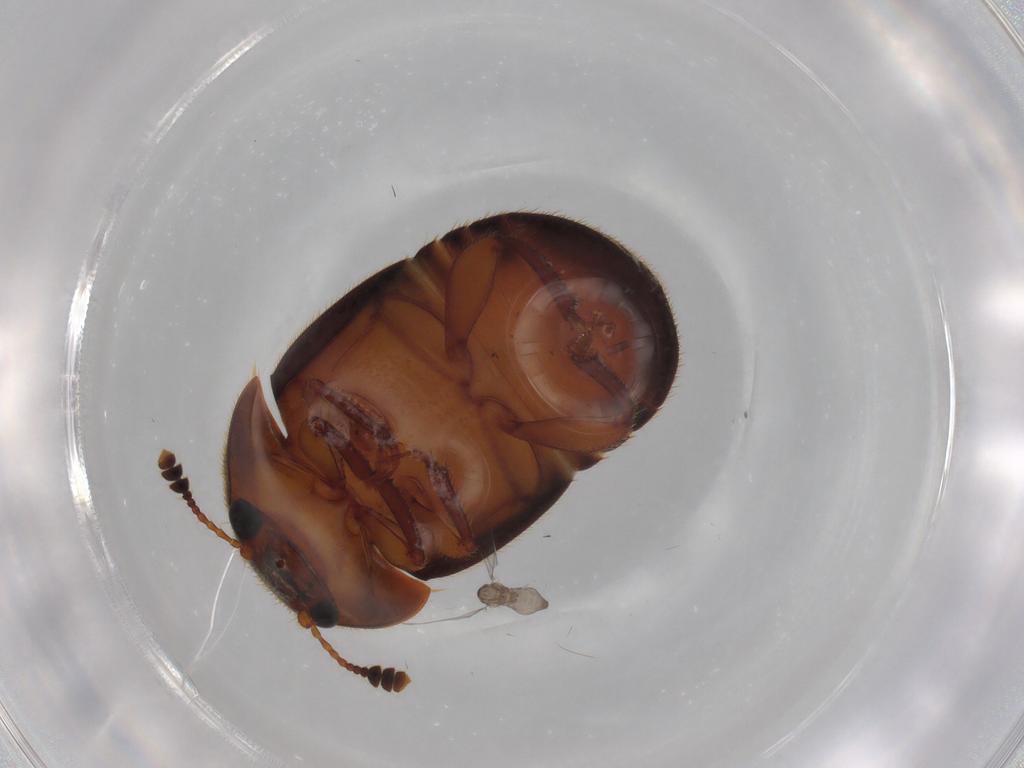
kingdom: Animalia
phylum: Arthropoda
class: Insecta
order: Coleoptera
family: Nitidulidae
